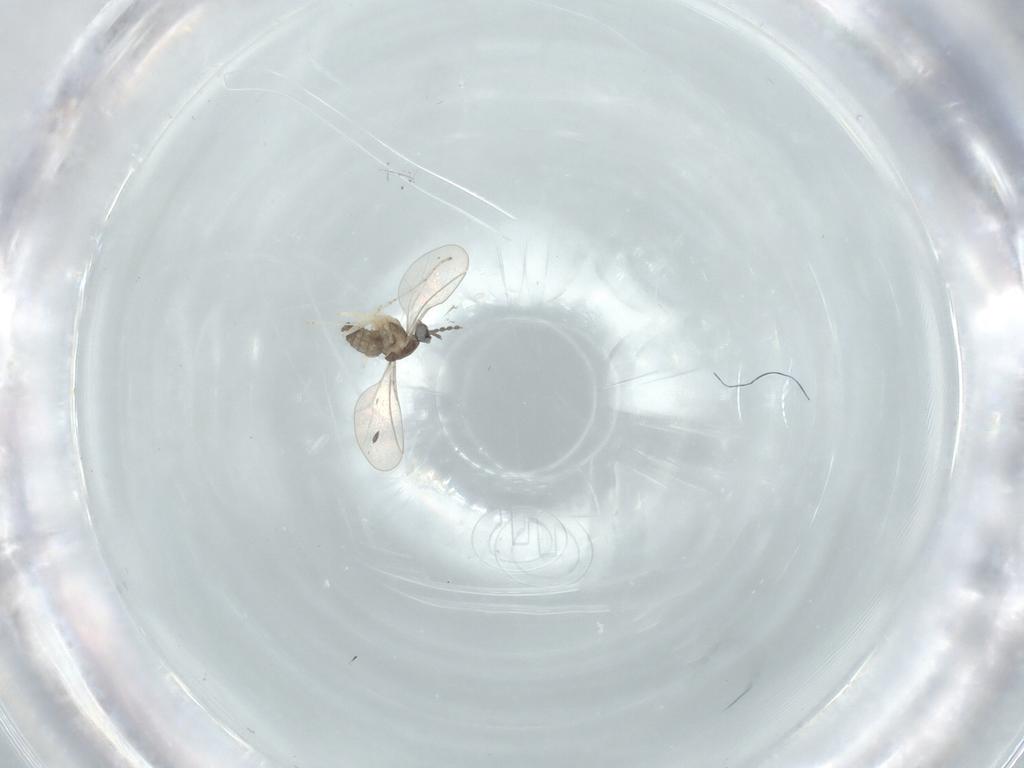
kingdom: Animalia
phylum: Arthropoda
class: Insecta
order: Diptera
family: Cecidomyiidae
